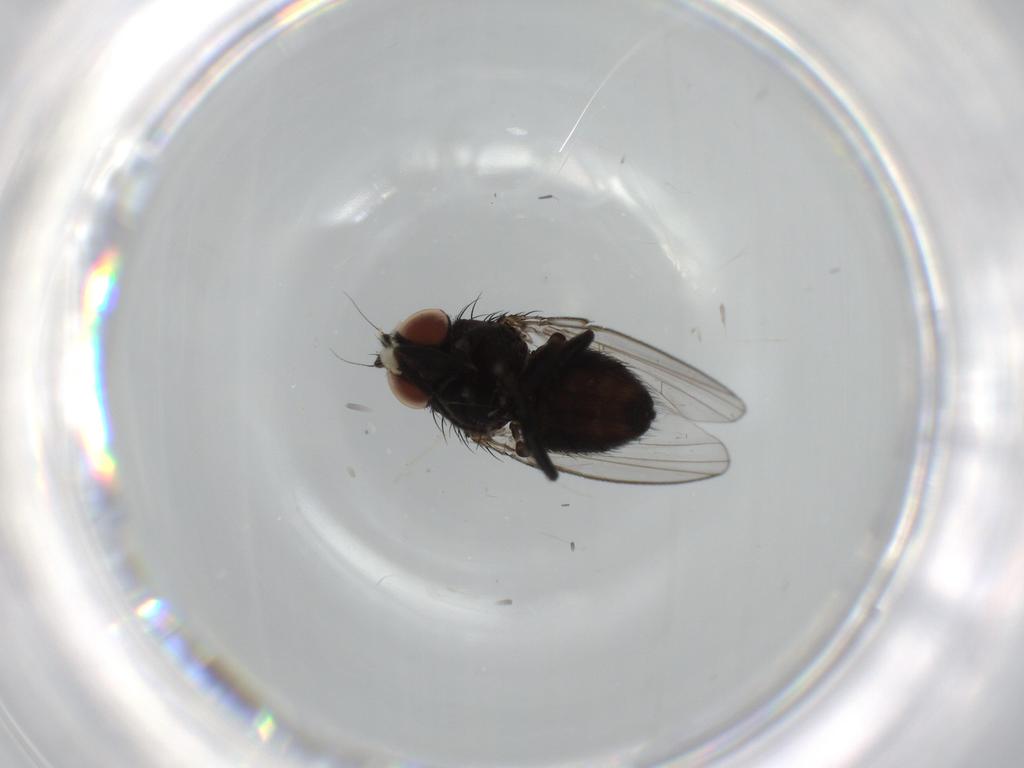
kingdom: Animalia
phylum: Arthropoda
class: Insecta
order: Diptera
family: Milichiidae
